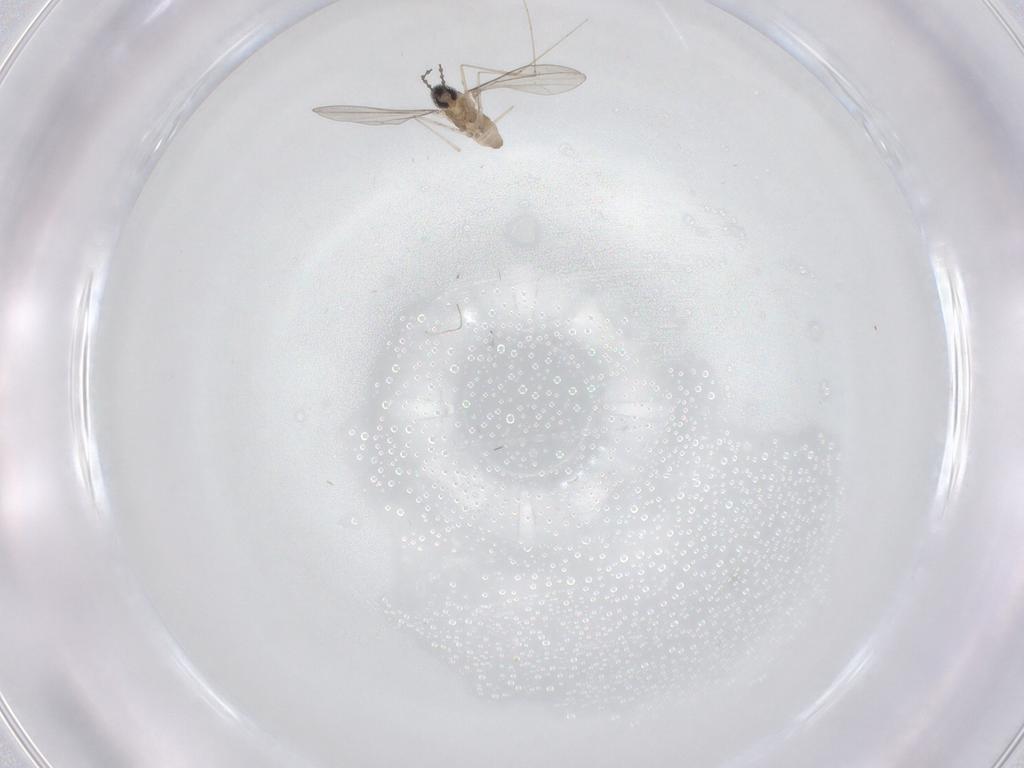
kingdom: Animalia
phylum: Arthropoda
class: Insecta
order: Diptera
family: Cecidomyiidae
